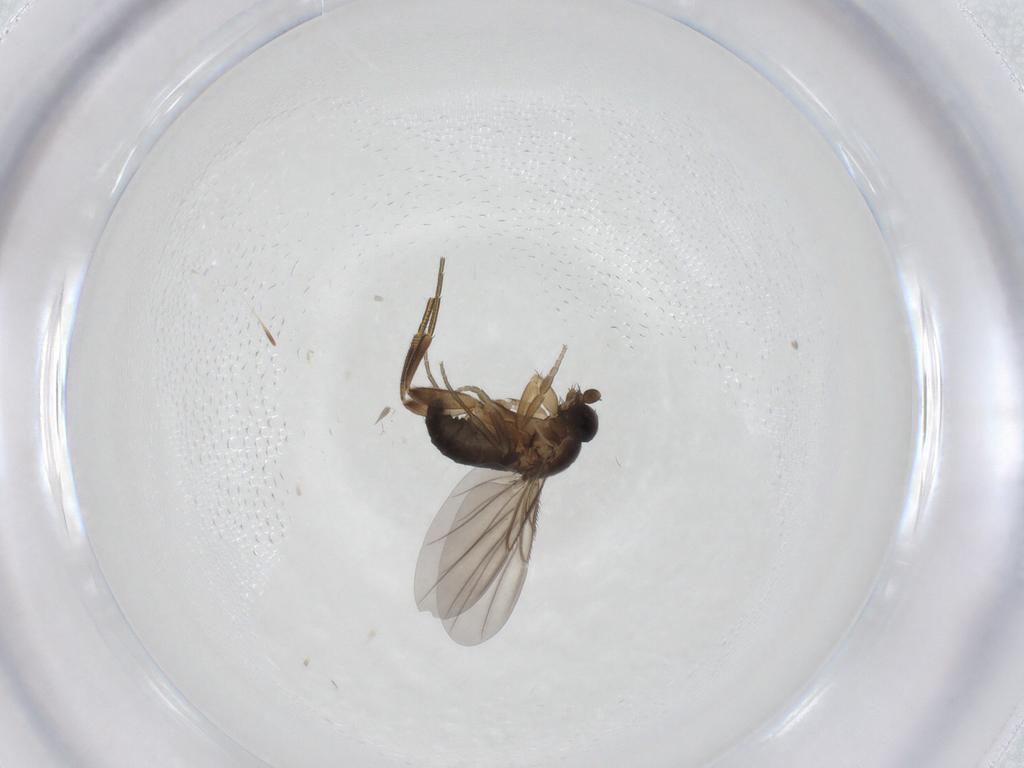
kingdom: Animalia
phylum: Arthropoda
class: Insecta
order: Diptera
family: Phoridae
